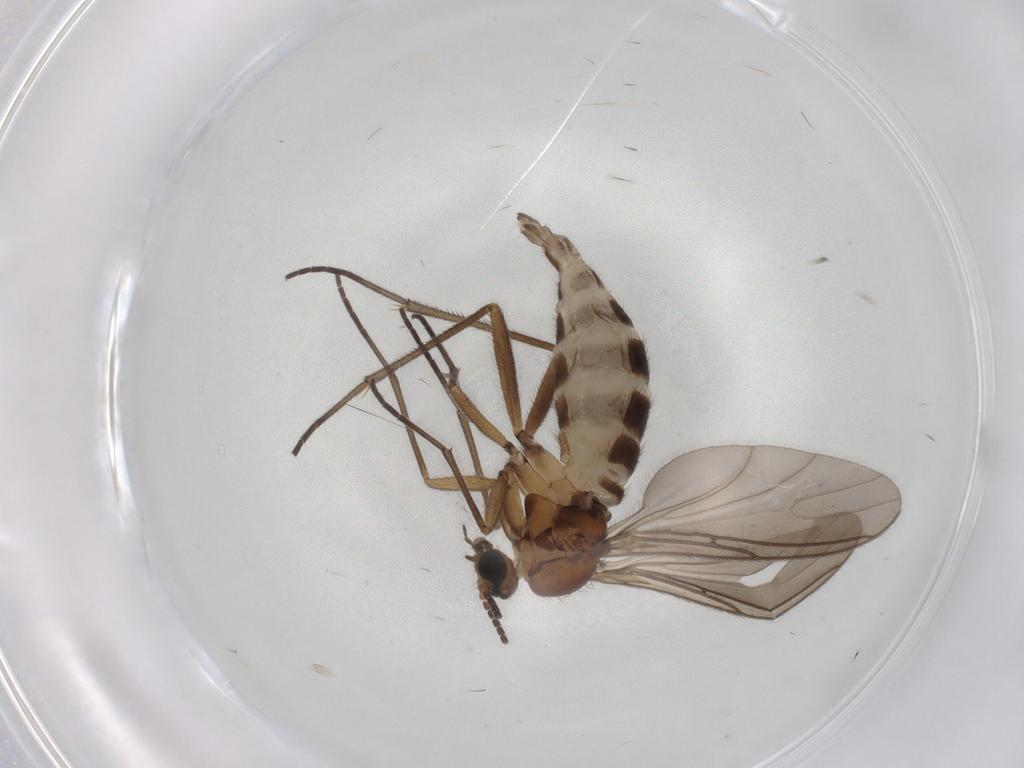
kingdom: Animalia
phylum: Arthropoda
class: Insecta
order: Diptera
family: Sciaridae
